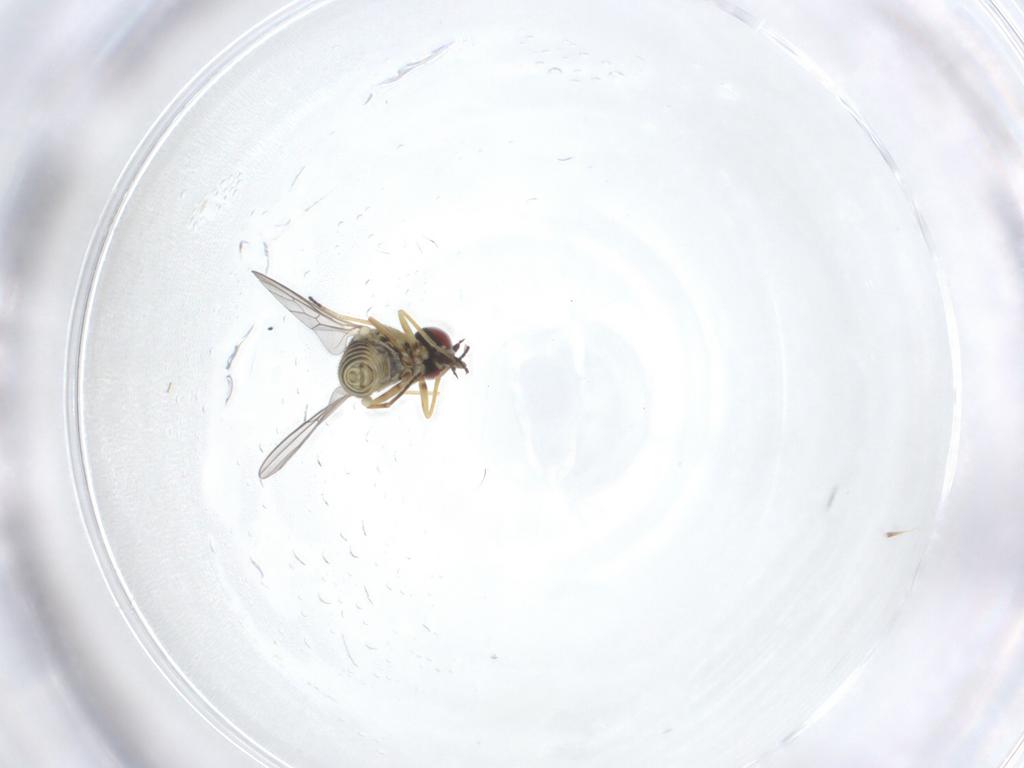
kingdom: Animalia
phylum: Arthropoda
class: Insecta
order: Diptera
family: Mythicomyiidae
